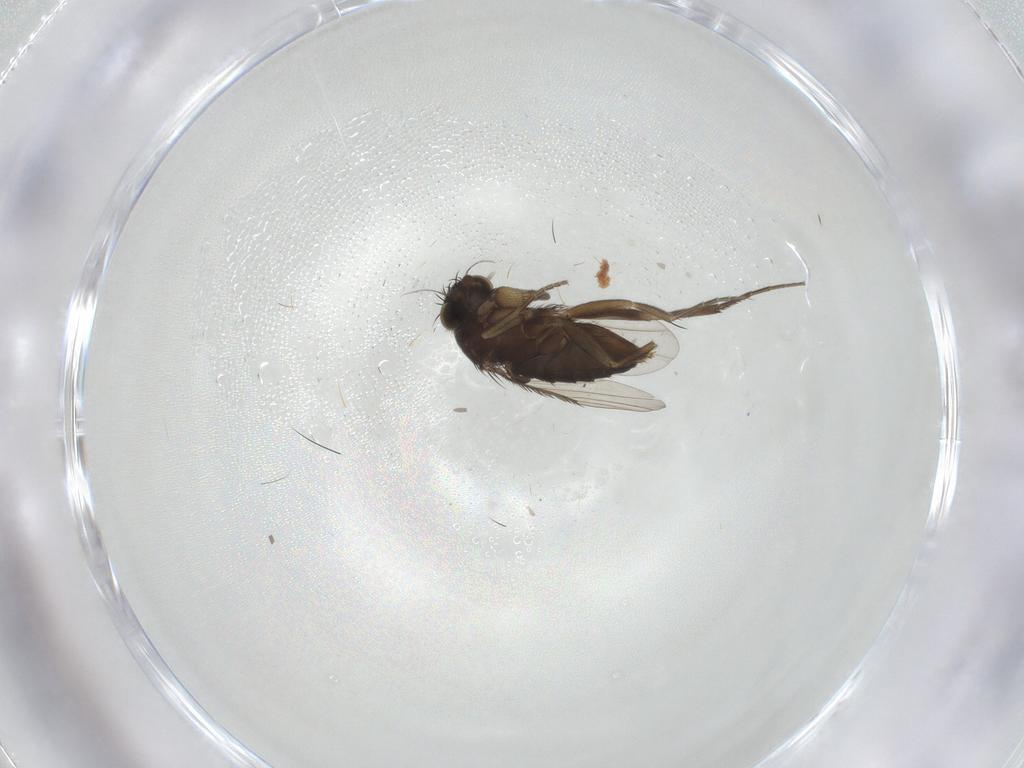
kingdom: Animalia
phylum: Arthropoda
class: Insecta
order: Diptera
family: Phoridae
